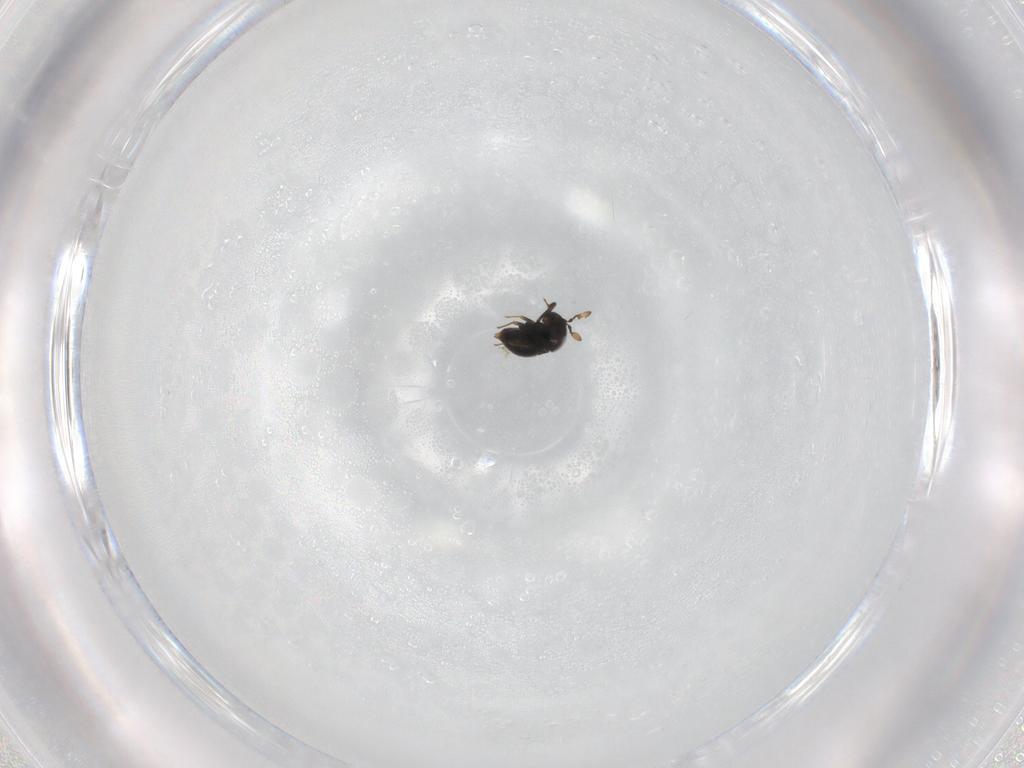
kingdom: Animalia
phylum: Arthropoda
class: Insecta
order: Hymenoptera
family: Scelionidae
